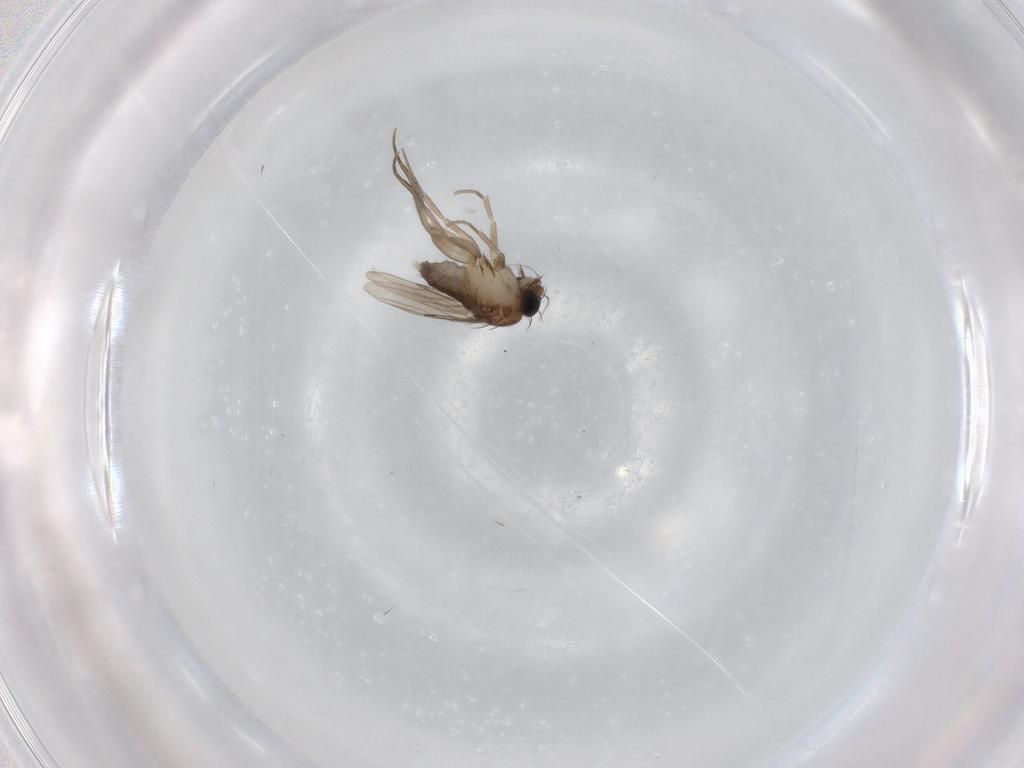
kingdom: Animalia
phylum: Arthropoda
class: Insecta
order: Diptera
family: Phoridae
